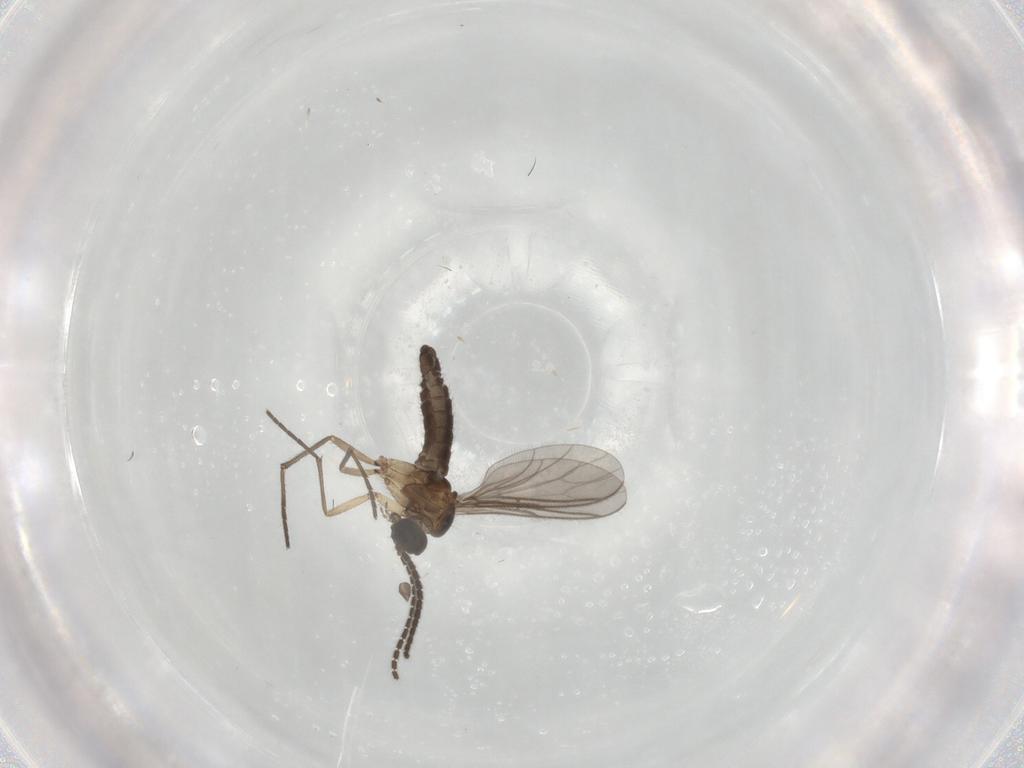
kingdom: Animalia
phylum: Arthropoda
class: Insecta
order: Diptera
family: Sciaridae
